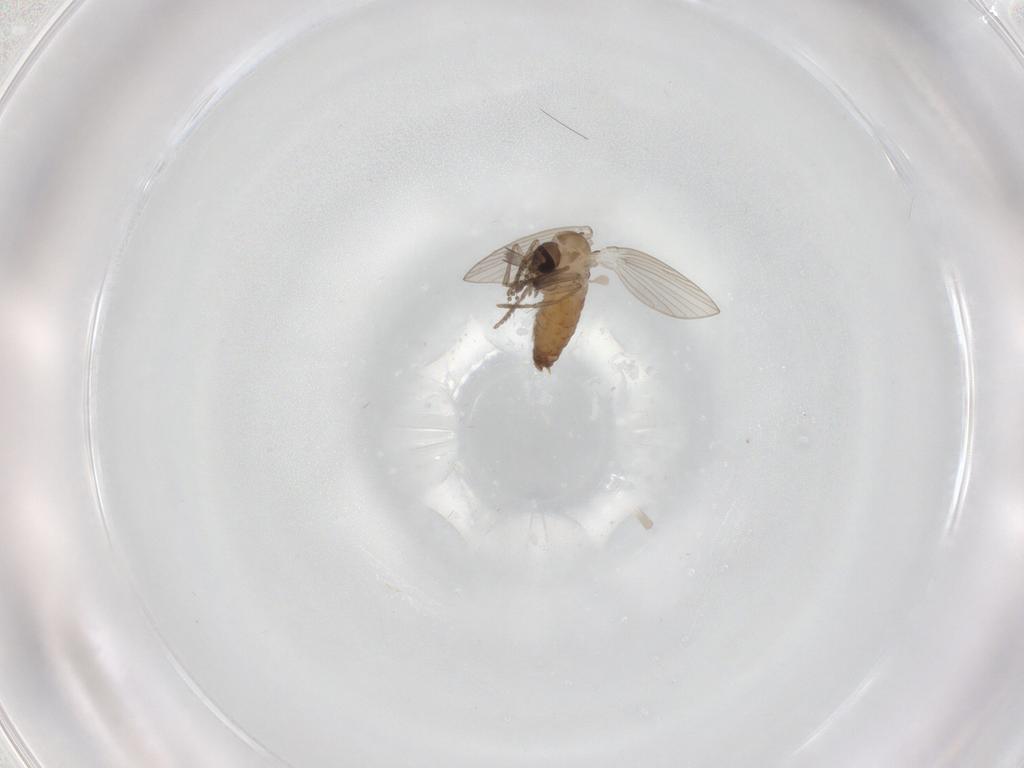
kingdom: Animalia
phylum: Arthropoda
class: Insecta
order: Diptera
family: Psychodidae
